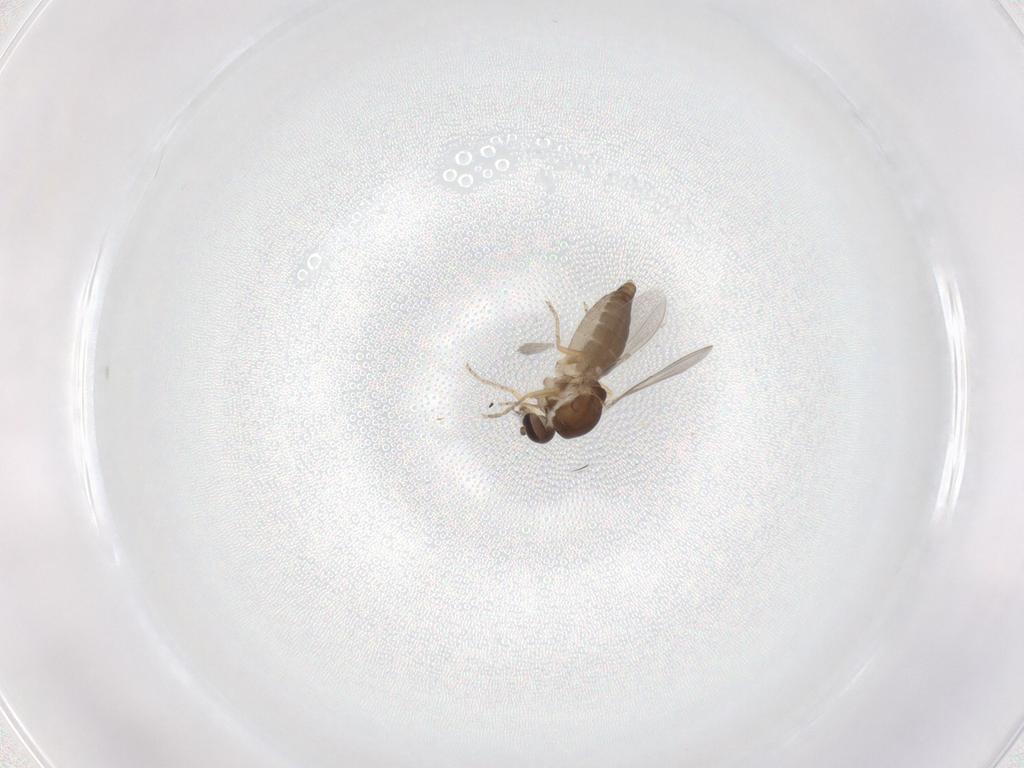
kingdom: Animalia
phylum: Arthropoda
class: Insecta
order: Diptera
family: Ceratopogonidae
